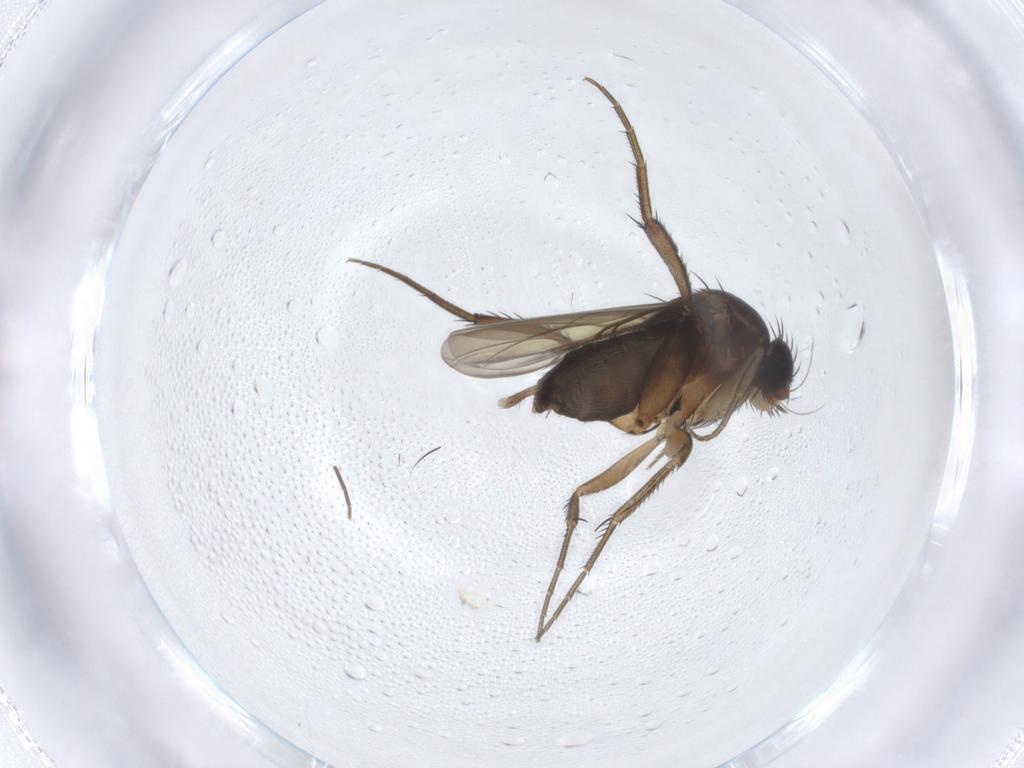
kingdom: Animalia
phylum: Arthropoda
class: Insecta
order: Diptera
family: Phoridae
